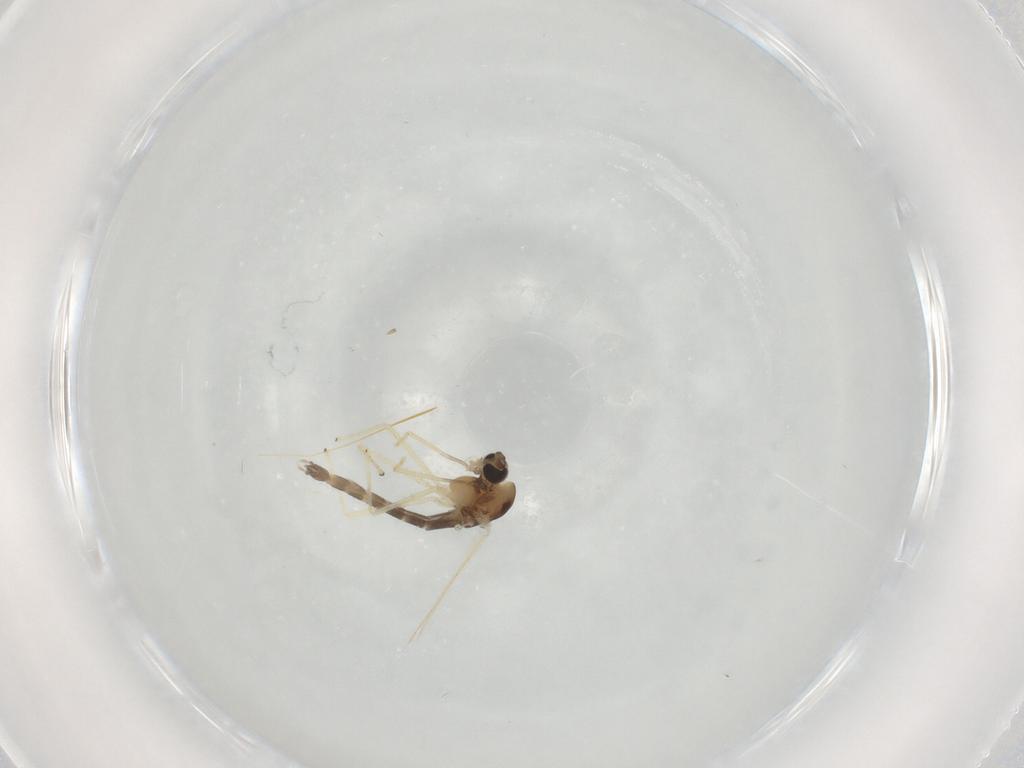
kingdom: Animalia
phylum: Arthropoda
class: Insecta
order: Diptera
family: Chironomidae
